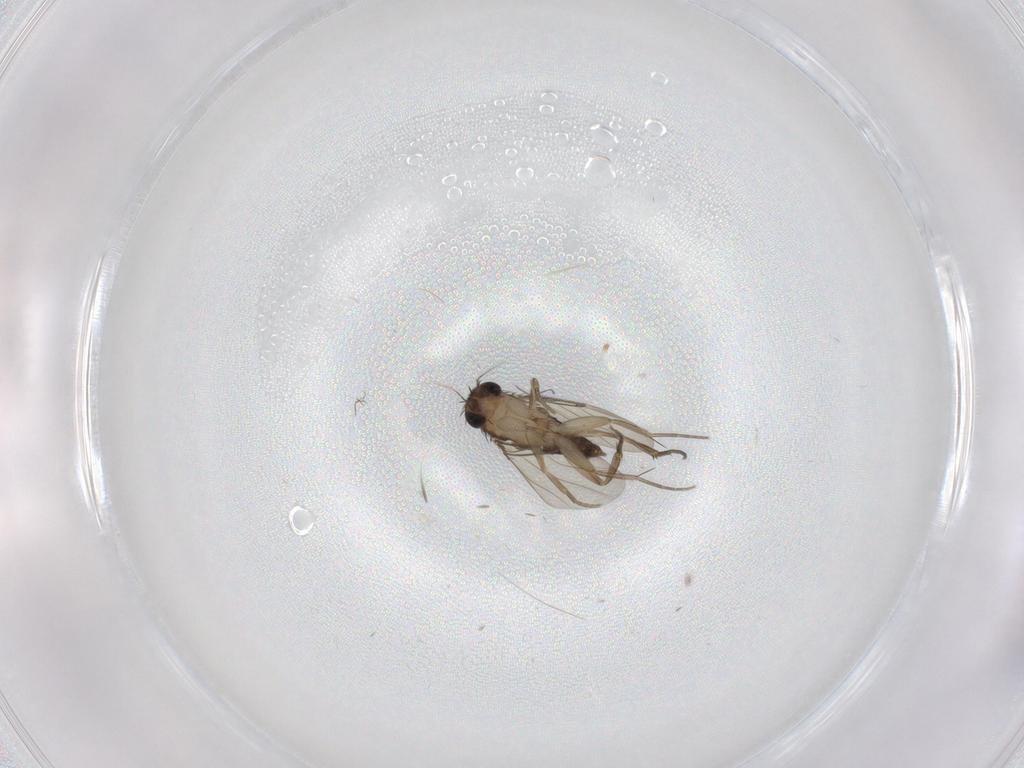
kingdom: Animalia
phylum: Arthropoda
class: Insecta
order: Diptera
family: Phoridae
